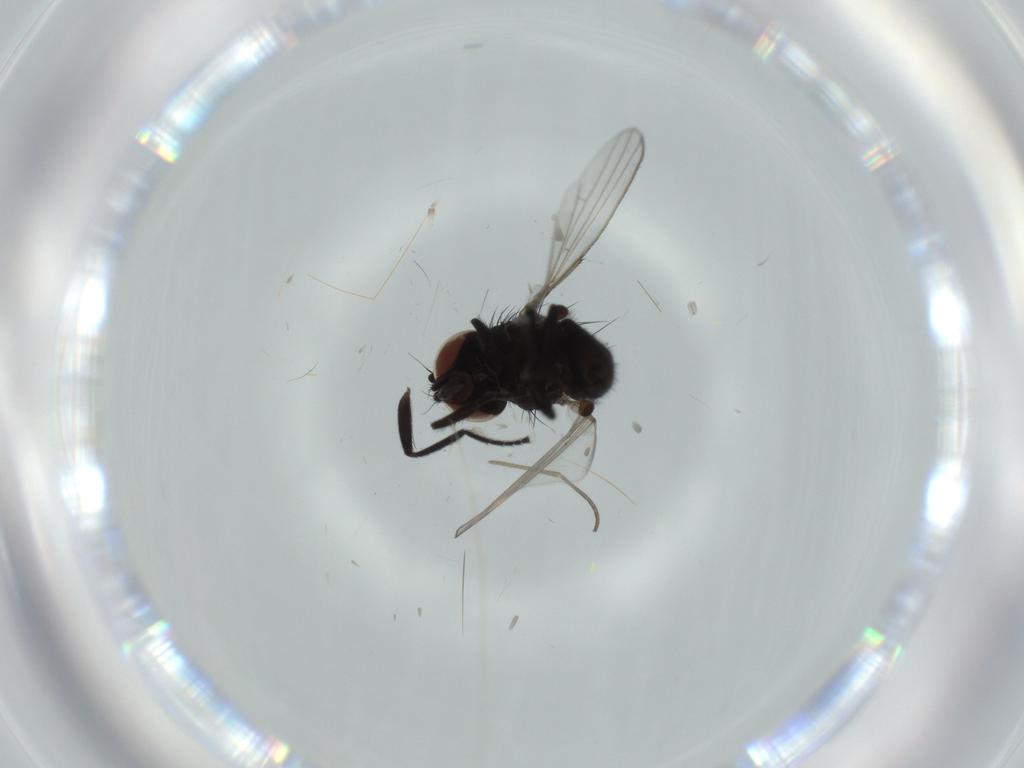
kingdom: Animalia
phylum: Arthropoda
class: Insecta
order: Diptera
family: Milichiidae
